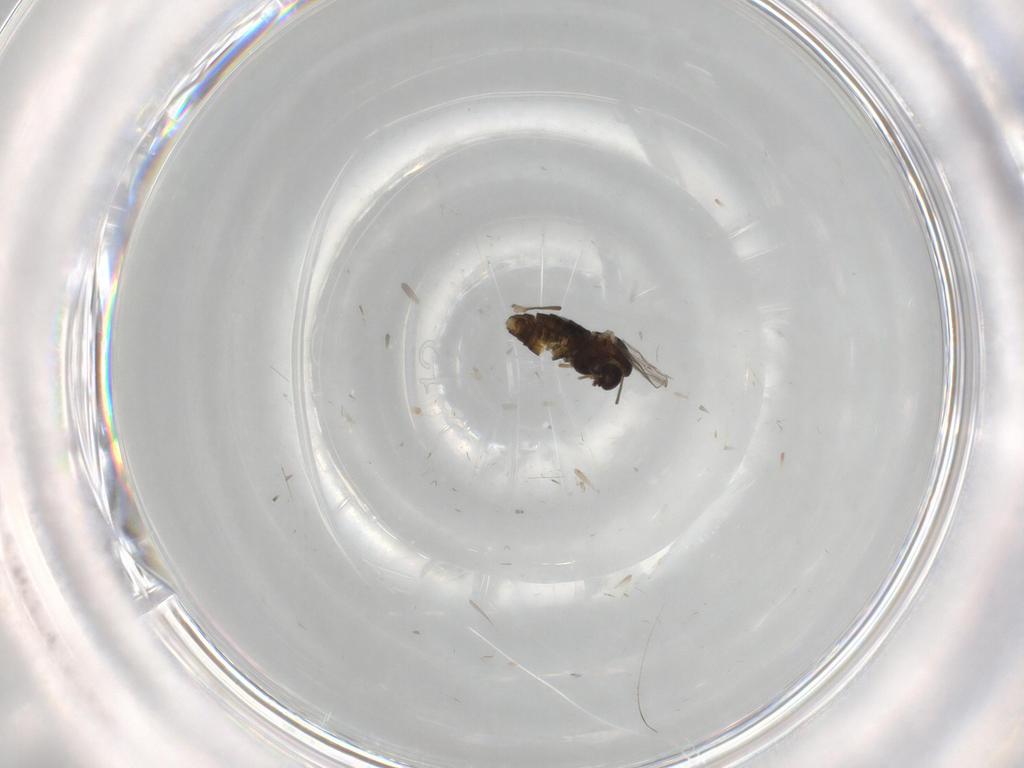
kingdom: Animalia
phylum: Arthropoda
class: Insecta
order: Diptera
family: Chironomidae
